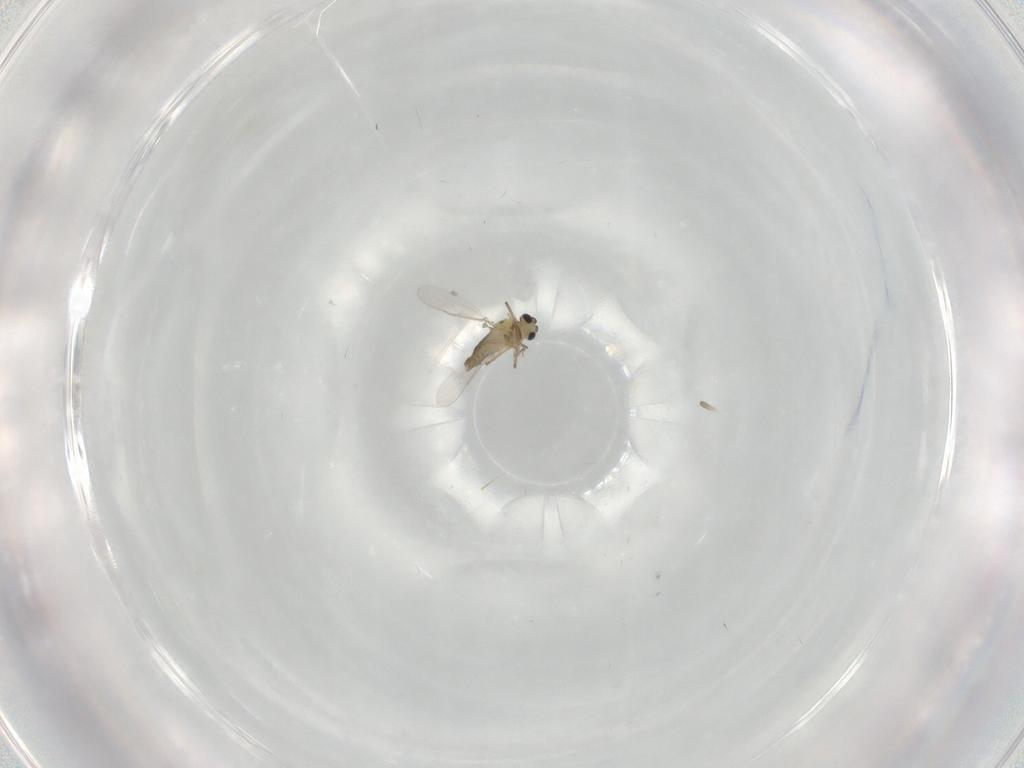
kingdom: Animalia
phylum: Arthropoda
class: Insecta
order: Diptera
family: Chironomidae
